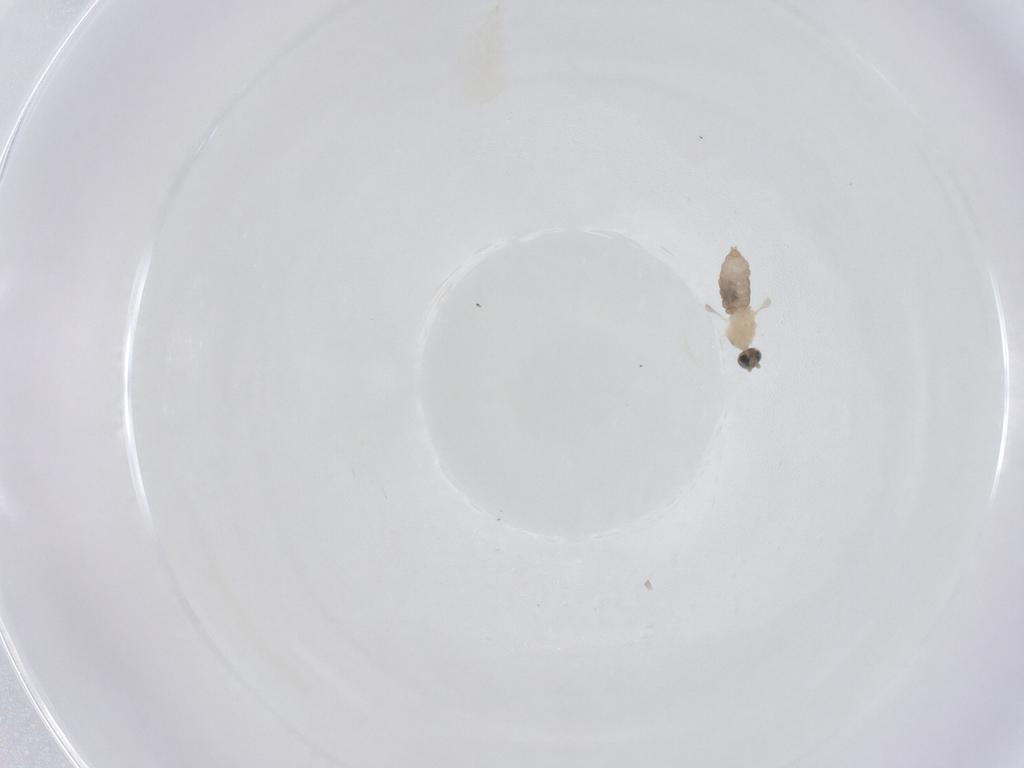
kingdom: Animalia
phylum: Arthropoda
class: Insecta
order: Diptera
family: Cecidomyiidae
